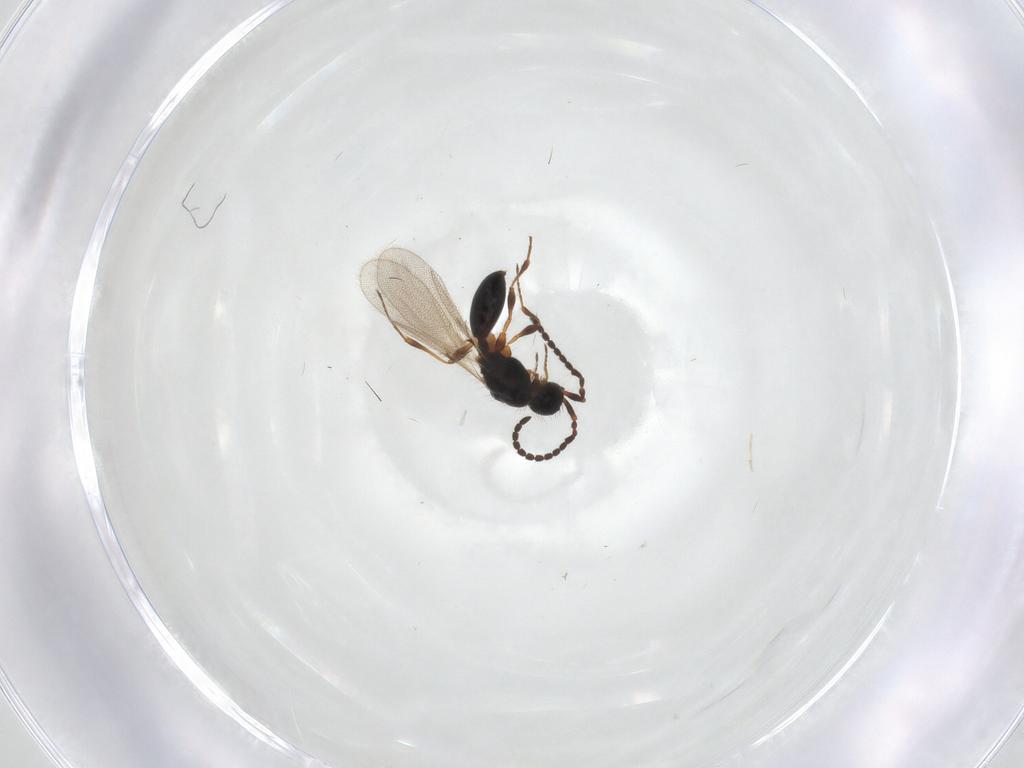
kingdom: Animalia
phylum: Arthropoda
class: Insecta
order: Hymenoptera
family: Diapriidae
